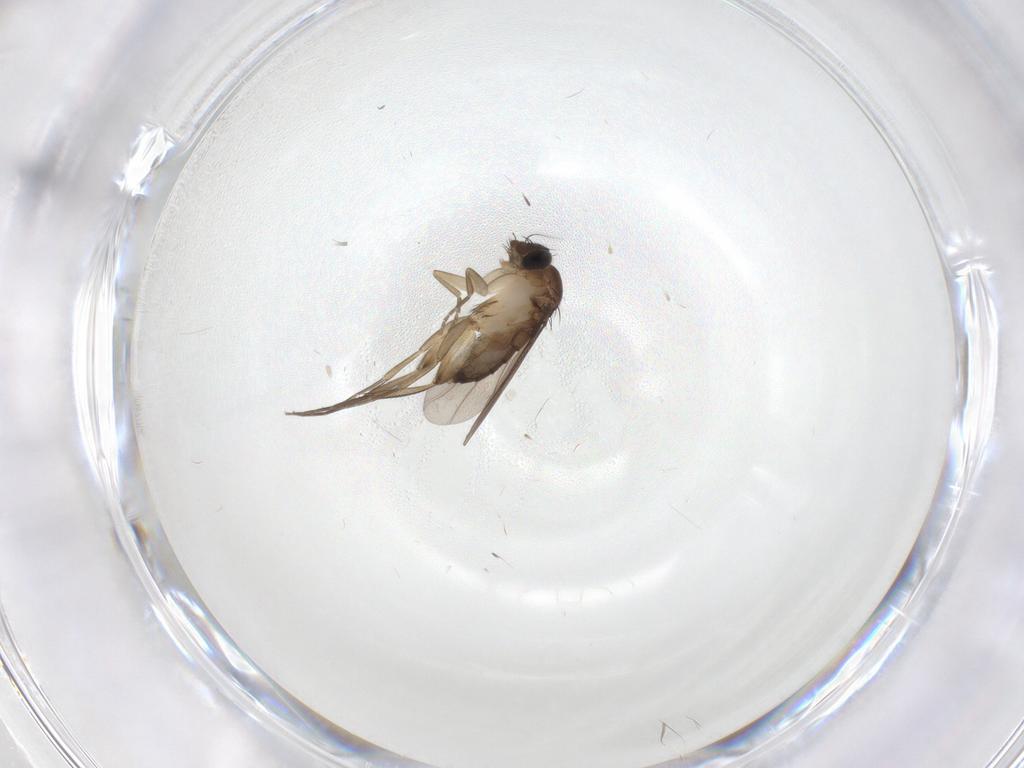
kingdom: Animalia
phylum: Arthropoda
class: Insecta
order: Diptera
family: Phoridae
